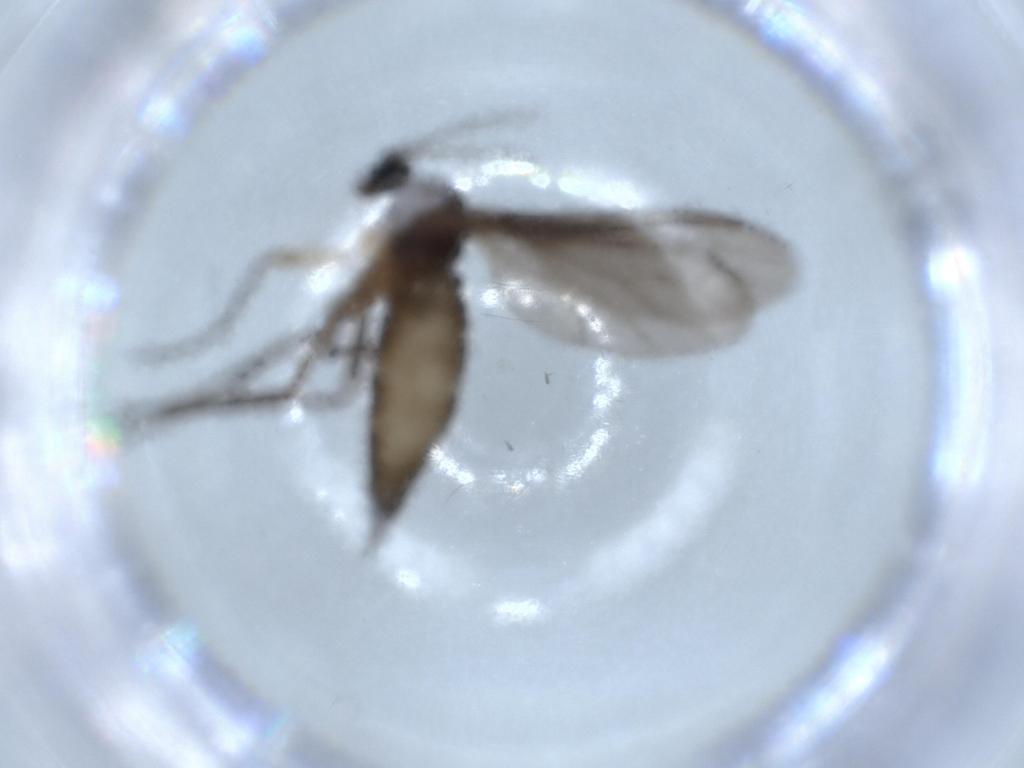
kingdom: Animalia
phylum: Arthropoda
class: Insecta
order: Diptera
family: Sciaridae
